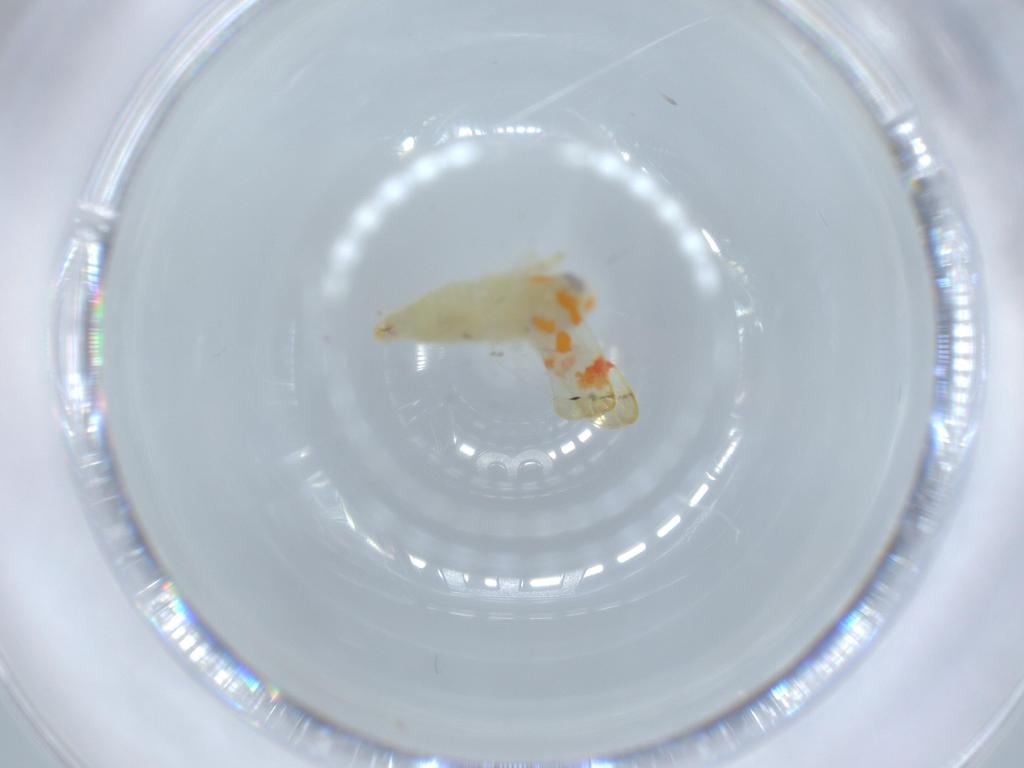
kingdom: Animalia
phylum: Arthropoda
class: Insecta
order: Hemiptera
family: Cicadellidae
